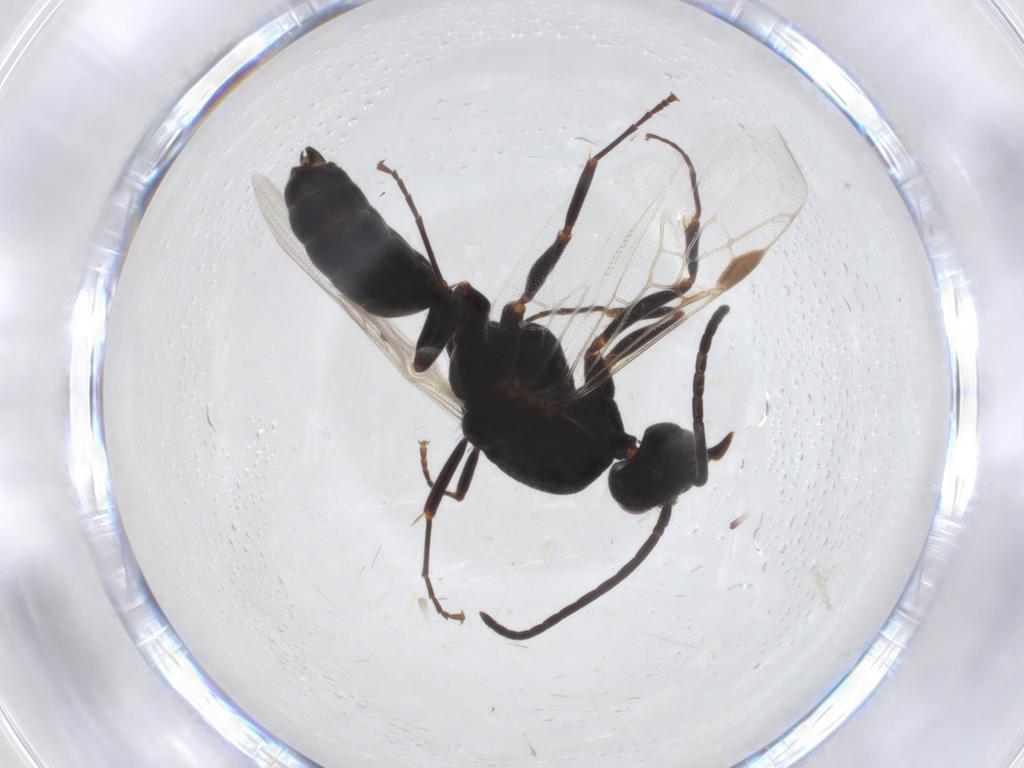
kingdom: Animalia
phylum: Arthropoda
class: Insecta
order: Hymenoptera
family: Formicidae
